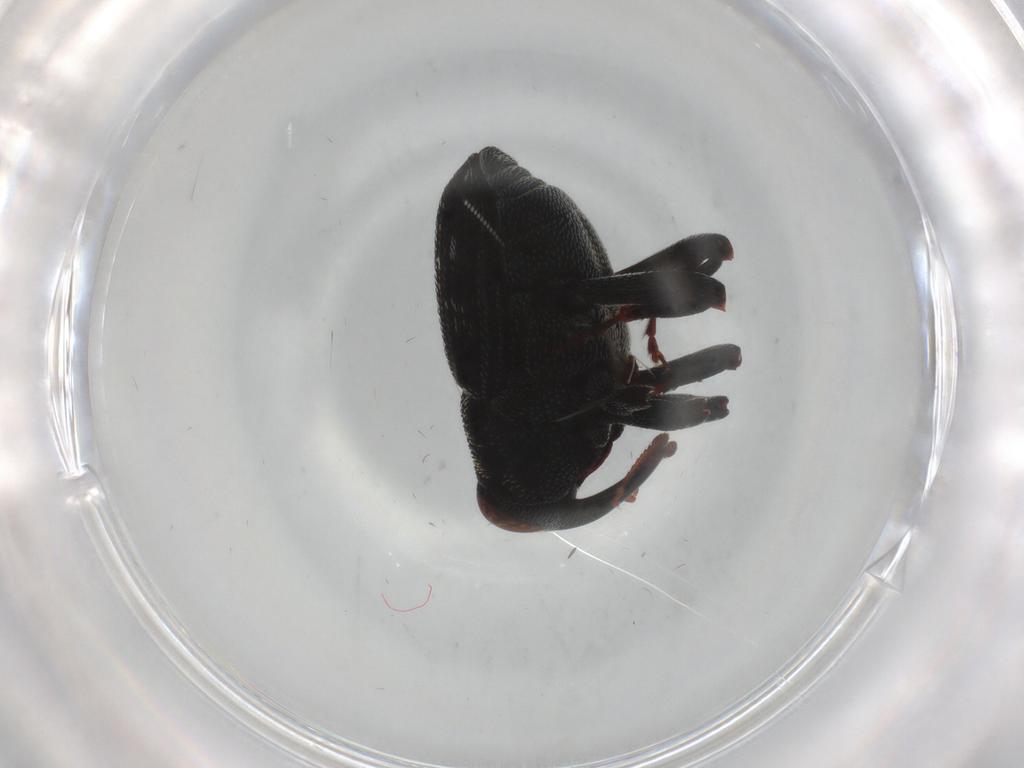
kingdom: Animalia
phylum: Arthropoda
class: Insecta
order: Coleoptera
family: Curculionidae
